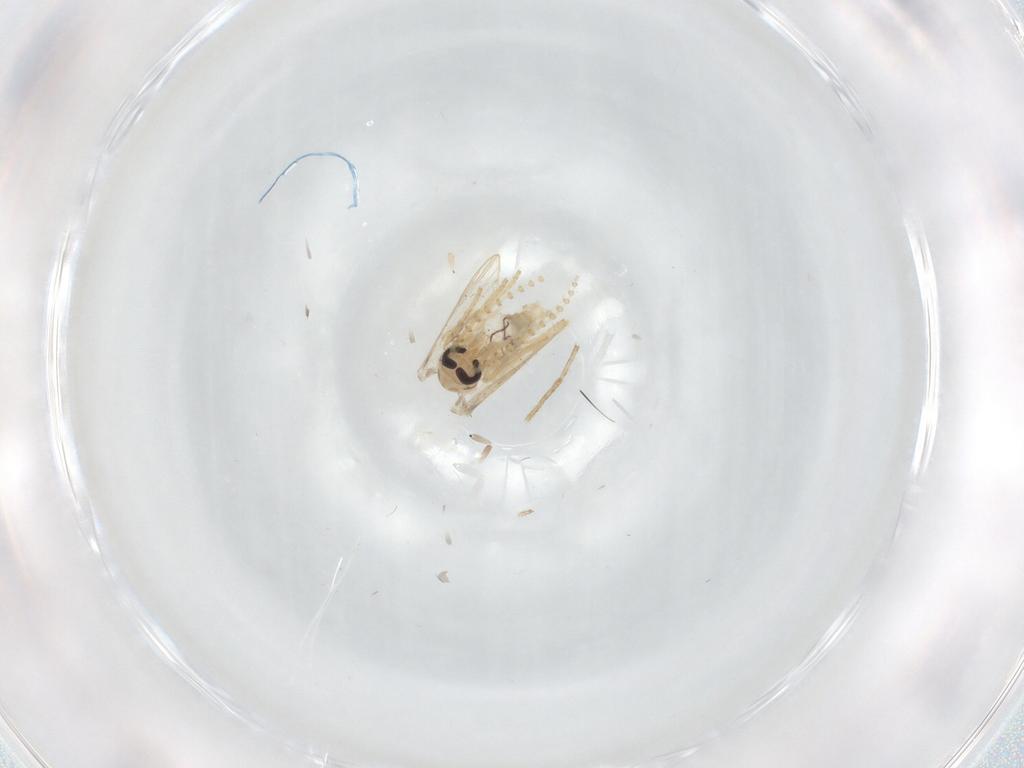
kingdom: Animalia
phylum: Arthropoda
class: Insecta
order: Diptera
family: Psychodidae
